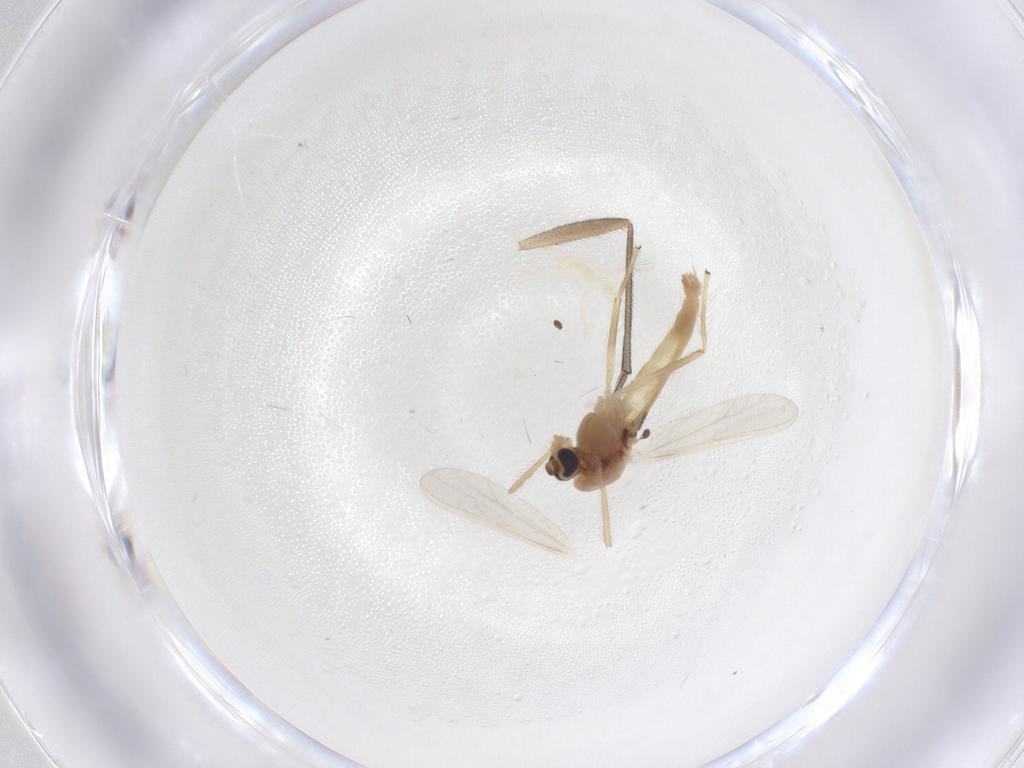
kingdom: Animalia
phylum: Arthropoda
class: Insecta
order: Diptera
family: Chironomidae
